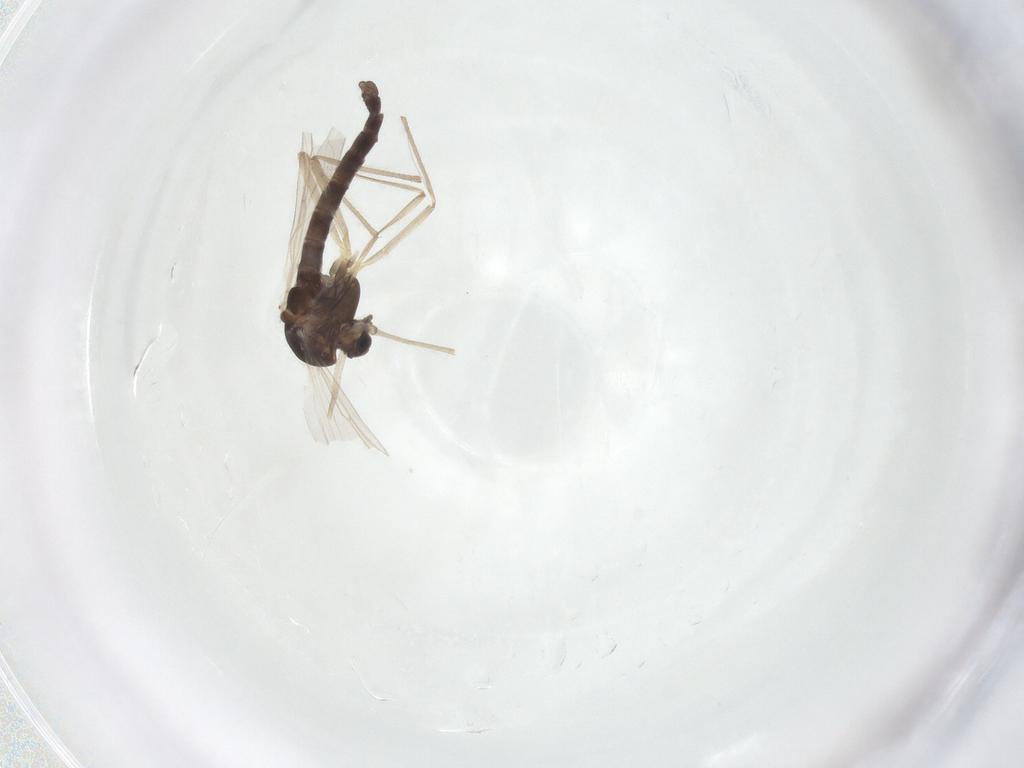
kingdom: Animalia
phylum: Arthropoda
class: Insecta
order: Diptera
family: Chironomidae
